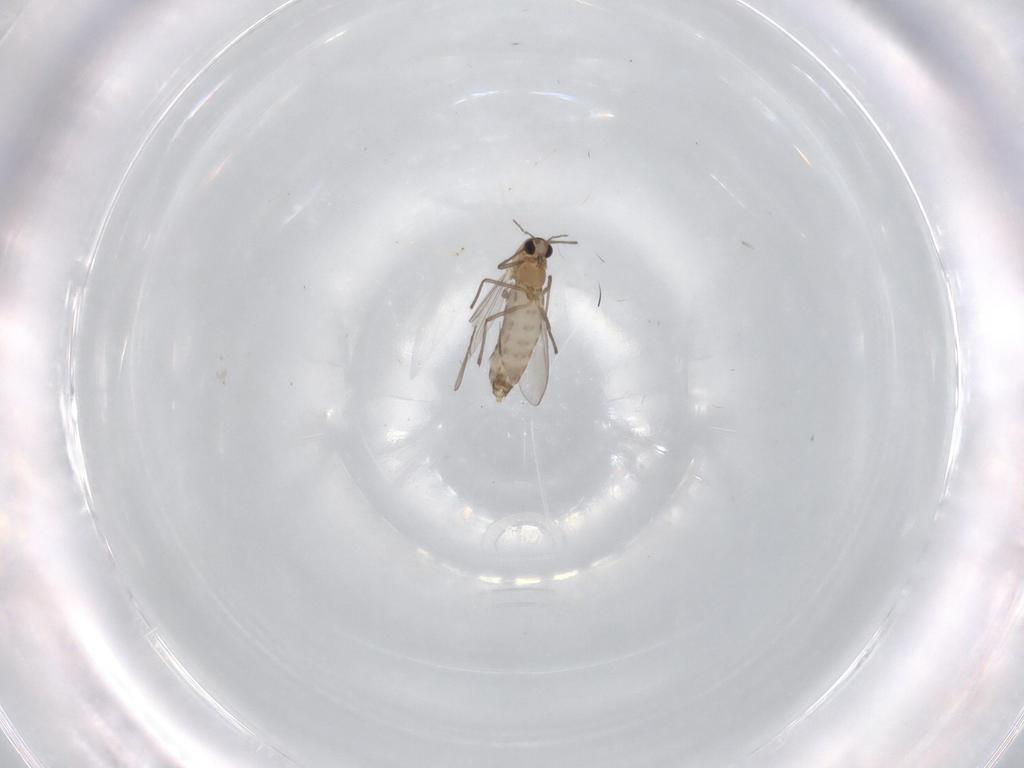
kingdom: Animalia
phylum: Arthropoda
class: Insecta
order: Diptera
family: Chironomidae
